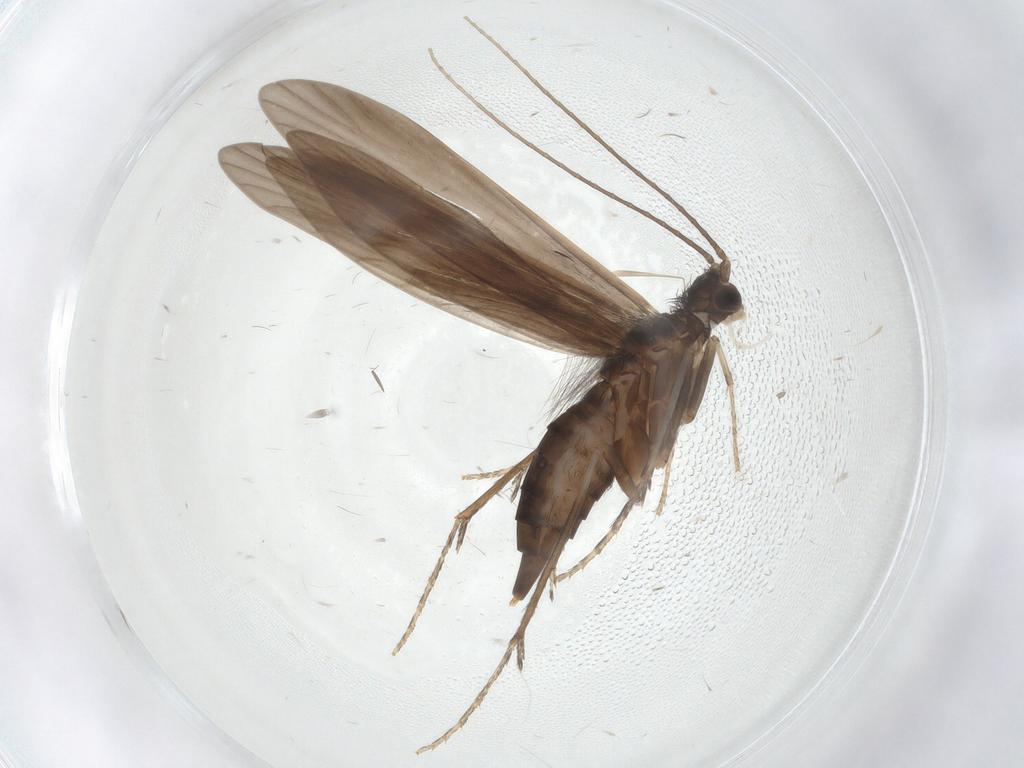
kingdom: Animalia
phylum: Arthropoda
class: Insecta
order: Trichoptera
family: Xiphocentronidae
